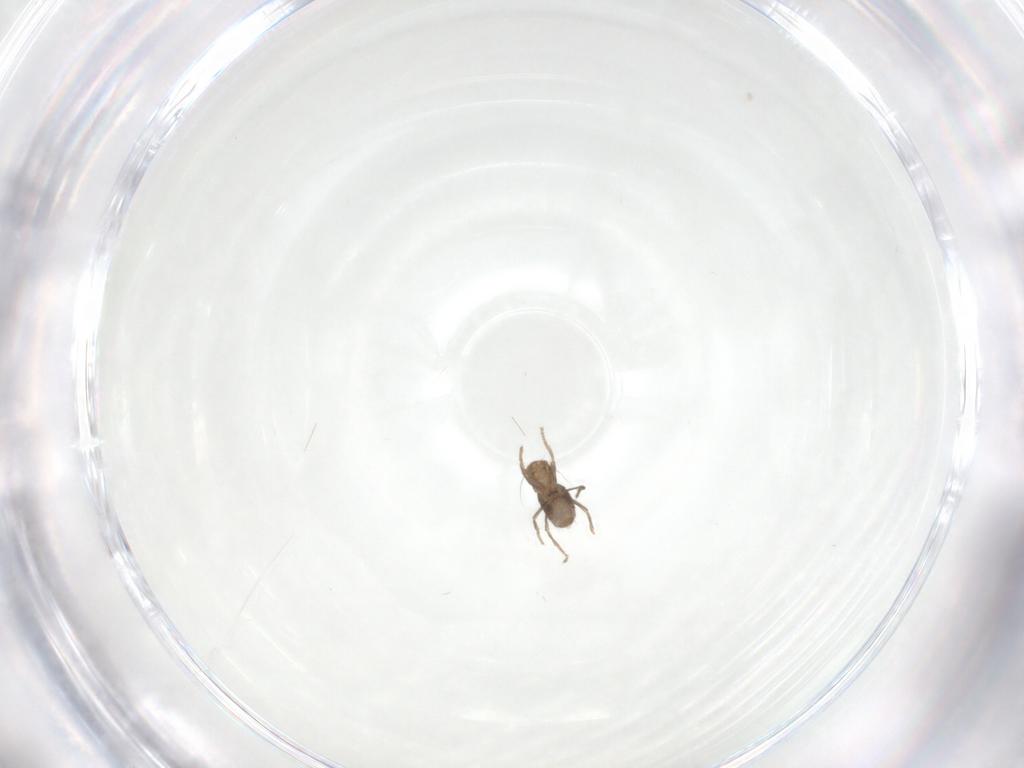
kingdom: Animalia
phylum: Arthropoda
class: Insecta
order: Diptera
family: Phoridae
